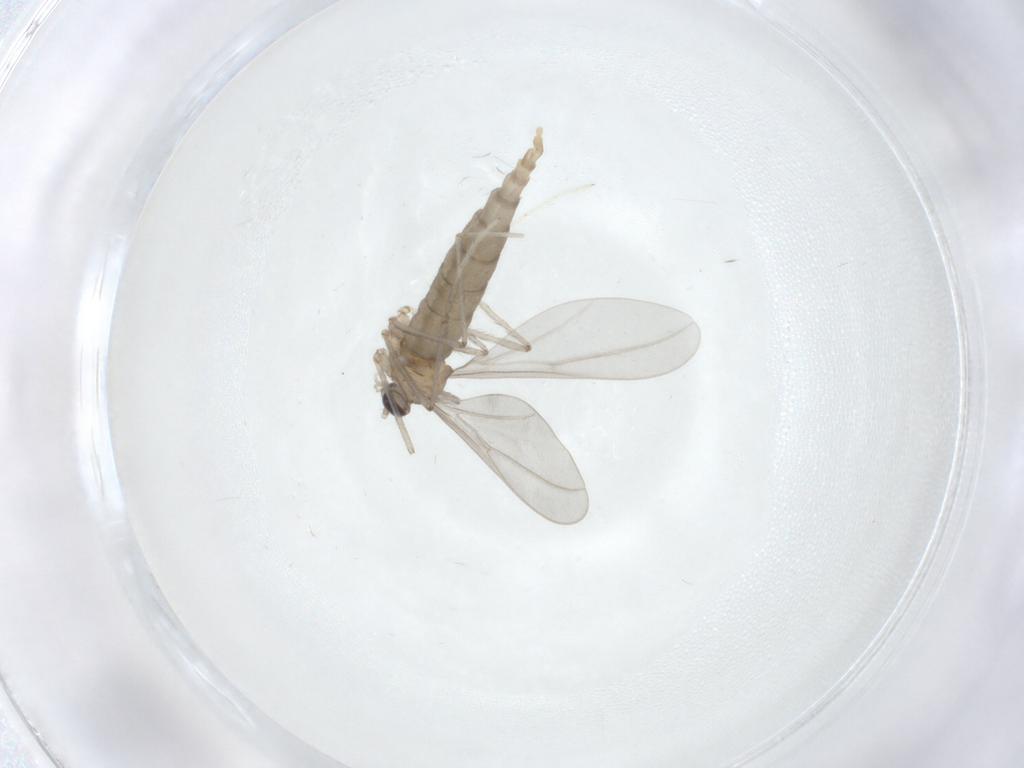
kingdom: Animalia
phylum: Arthropoda
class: Insecta
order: Diptera
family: Cecidomyiidae
